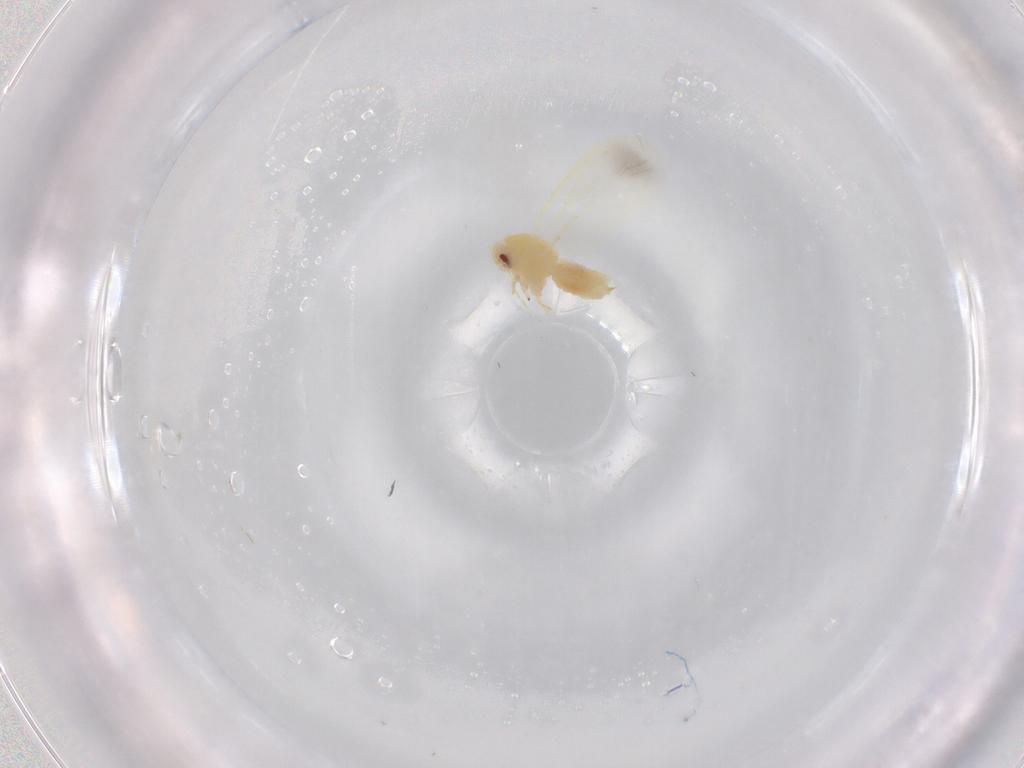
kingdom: Animalia
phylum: Arthropoda
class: Insecta
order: Hemiptera
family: Aleyrodidae
